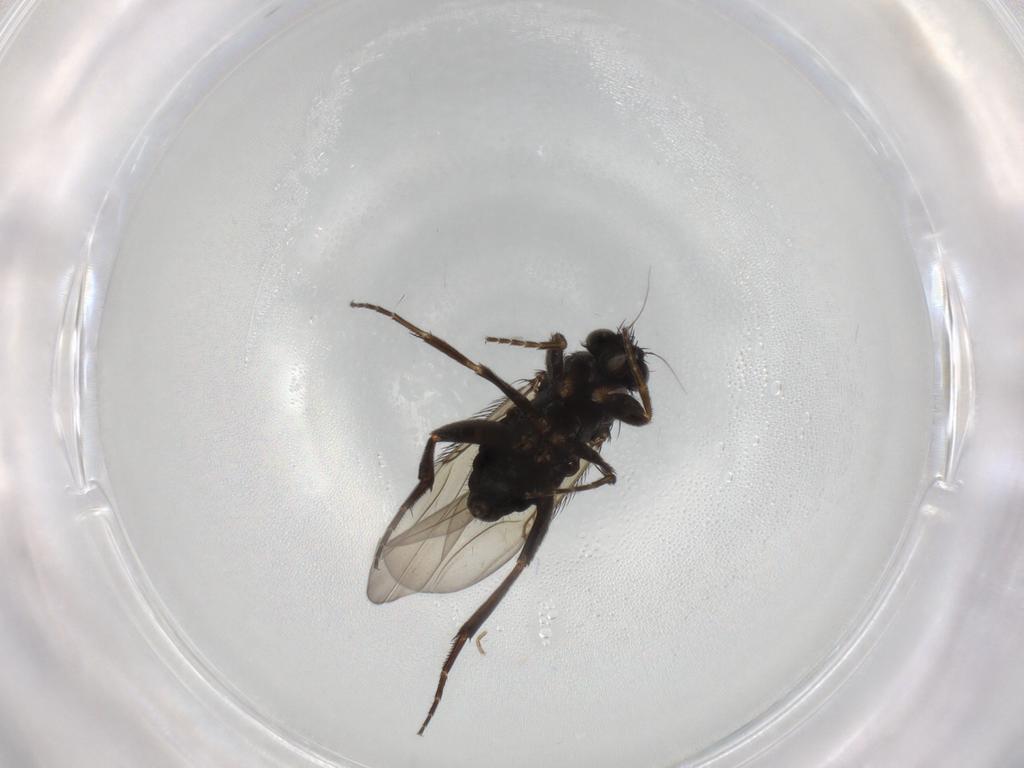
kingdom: Animalia
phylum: Arthropoda
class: Insecta
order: Diptera
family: Phoridae
